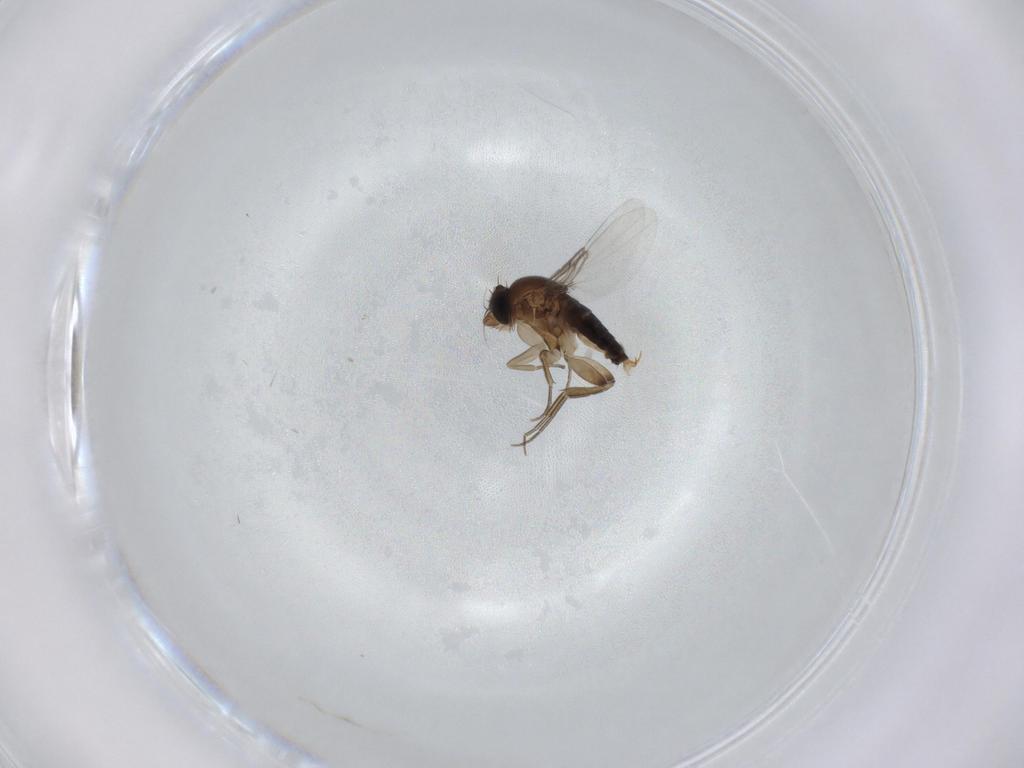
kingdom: Animalia
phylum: Arthropoda
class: Insecta
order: Diptera
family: Phoridae
